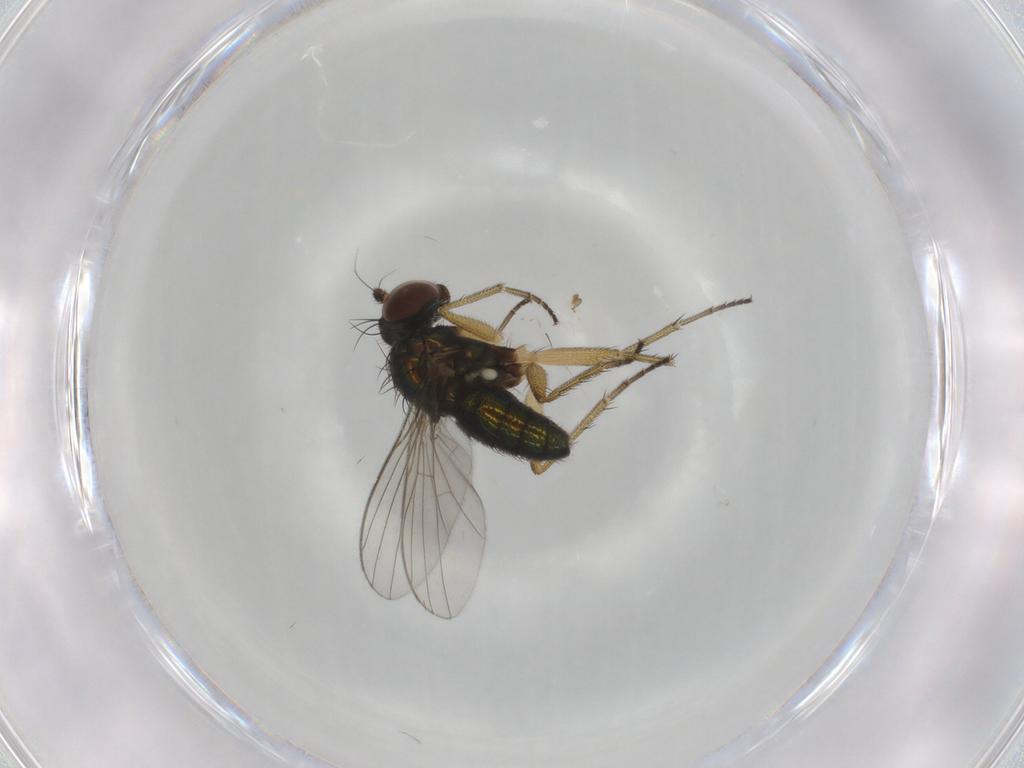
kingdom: Animalia
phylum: Arthropoda
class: Insecta
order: Diptera
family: Dolichopodidae
